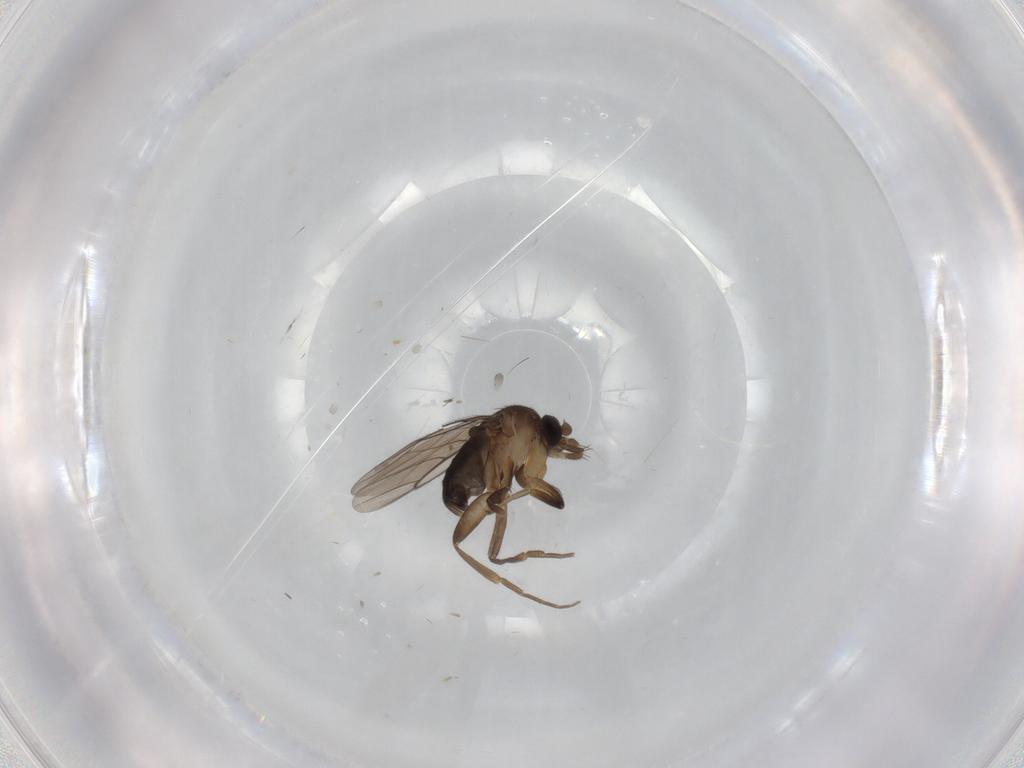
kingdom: Animalia
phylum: Arthropoda
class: Insecta
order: Diptera
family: Phoridae
